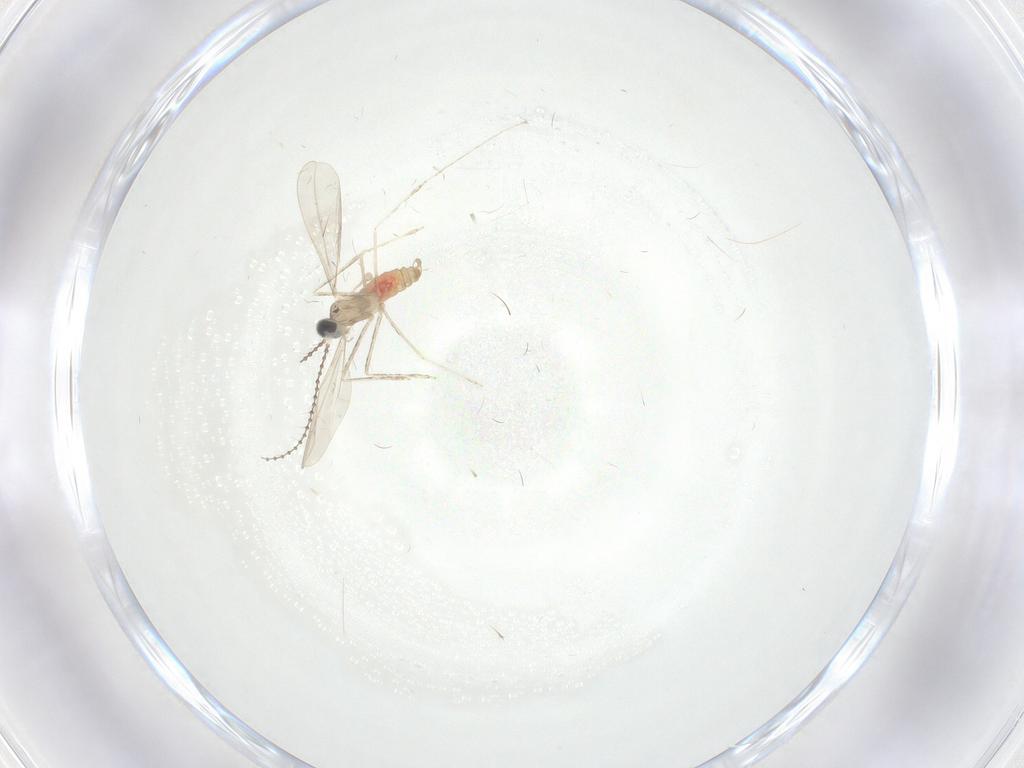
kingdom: Animalia
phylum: Arthropoda
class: Insecta
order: Diptera
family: Cecidomyiidae
